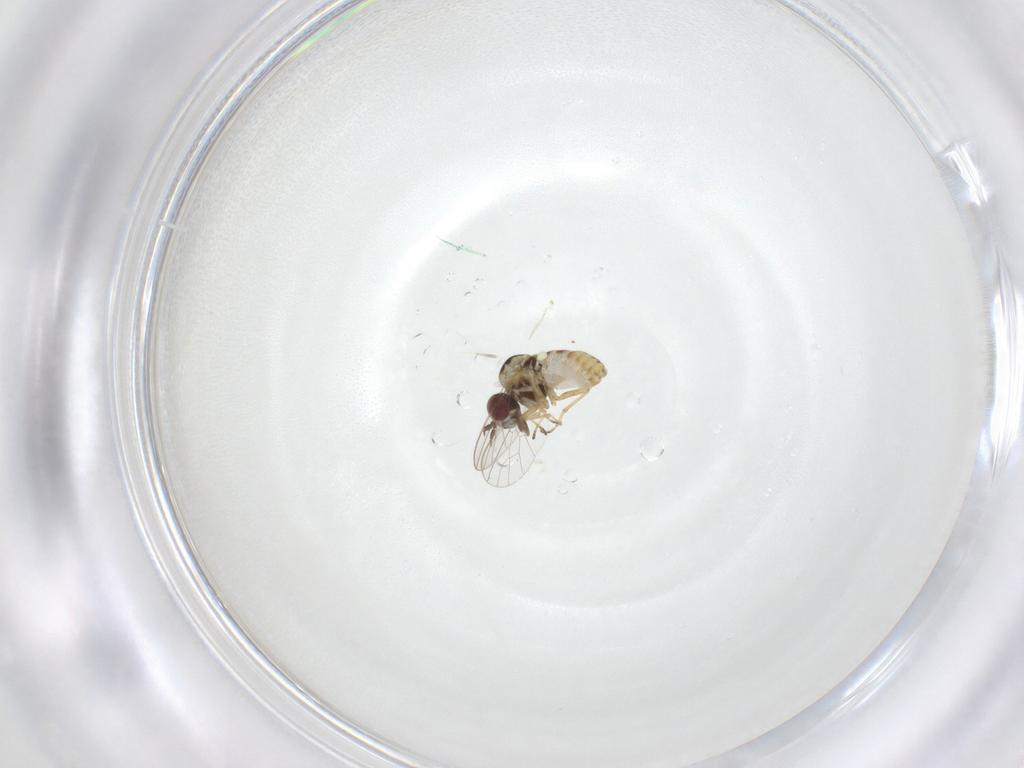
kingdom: Animalia
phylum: Arthropoda
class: Insecta
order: Diptera
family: Mythicomyiidae
